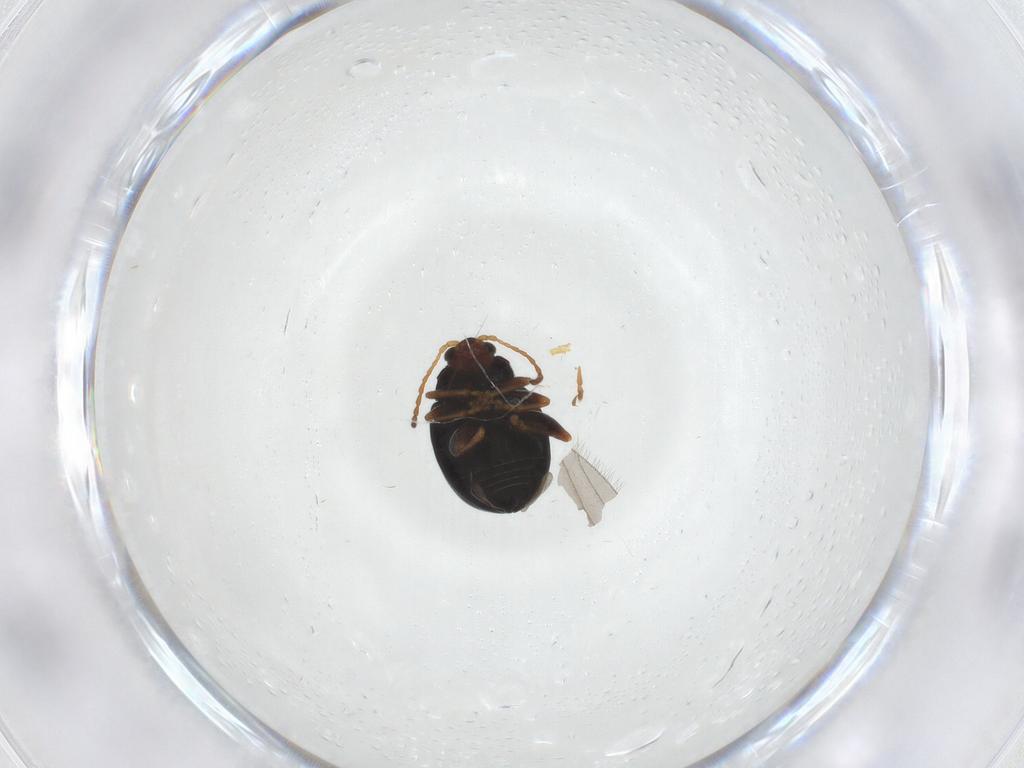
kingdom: Animalia
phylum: Arthropoda
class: Insecta
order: Coleoptera
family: Chrysomelidae
